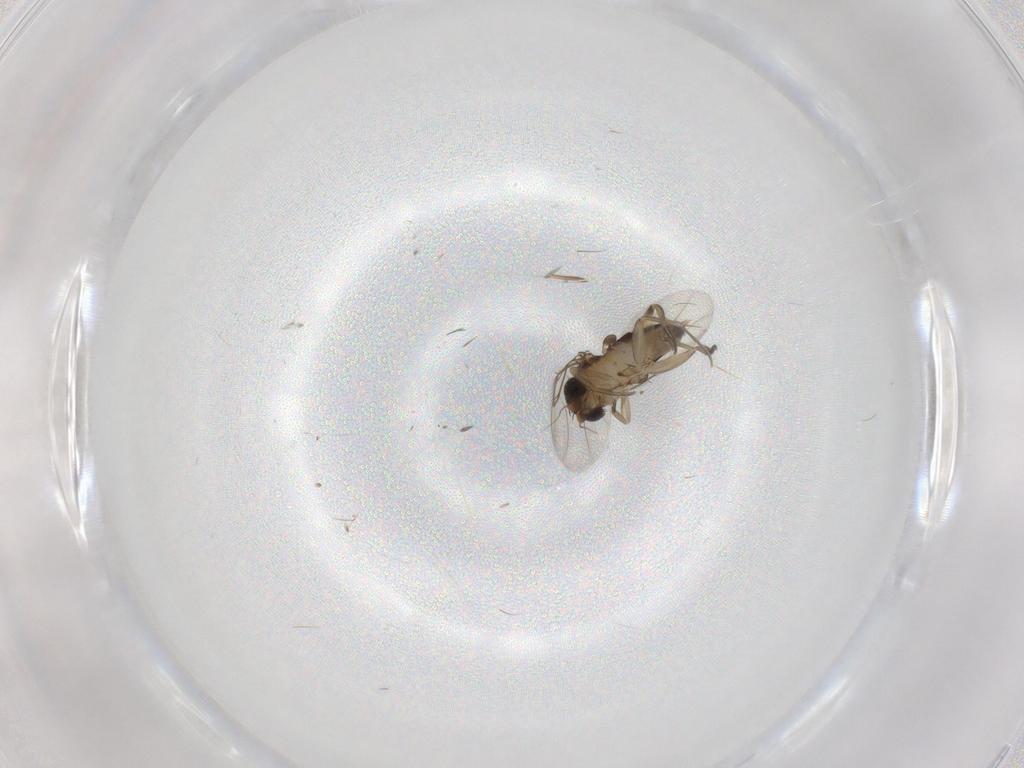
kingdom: Animalia
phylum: Arthropoda
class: Insecta
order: Diptera
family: Phoridae
